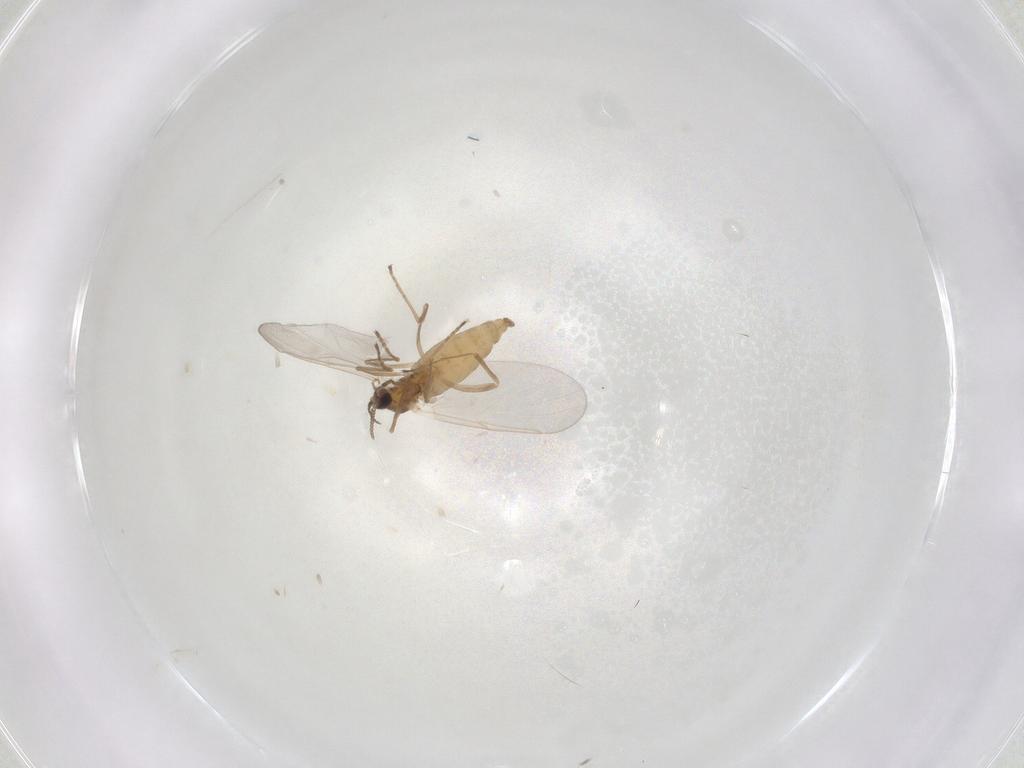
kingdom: Animalia
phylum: Arthropoda
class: Insecta
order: Diptera
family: Cecidomyiidae
